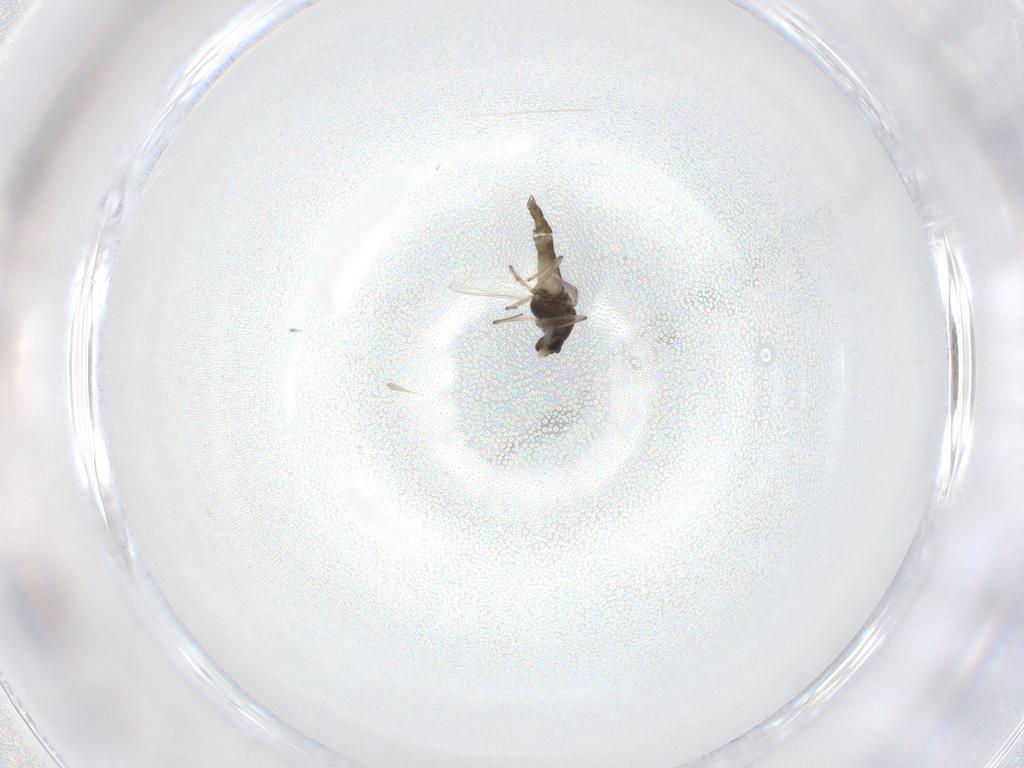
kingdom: Animalia
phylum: Arthropoda
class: Insecta
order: Diptera
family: Chironomidae
